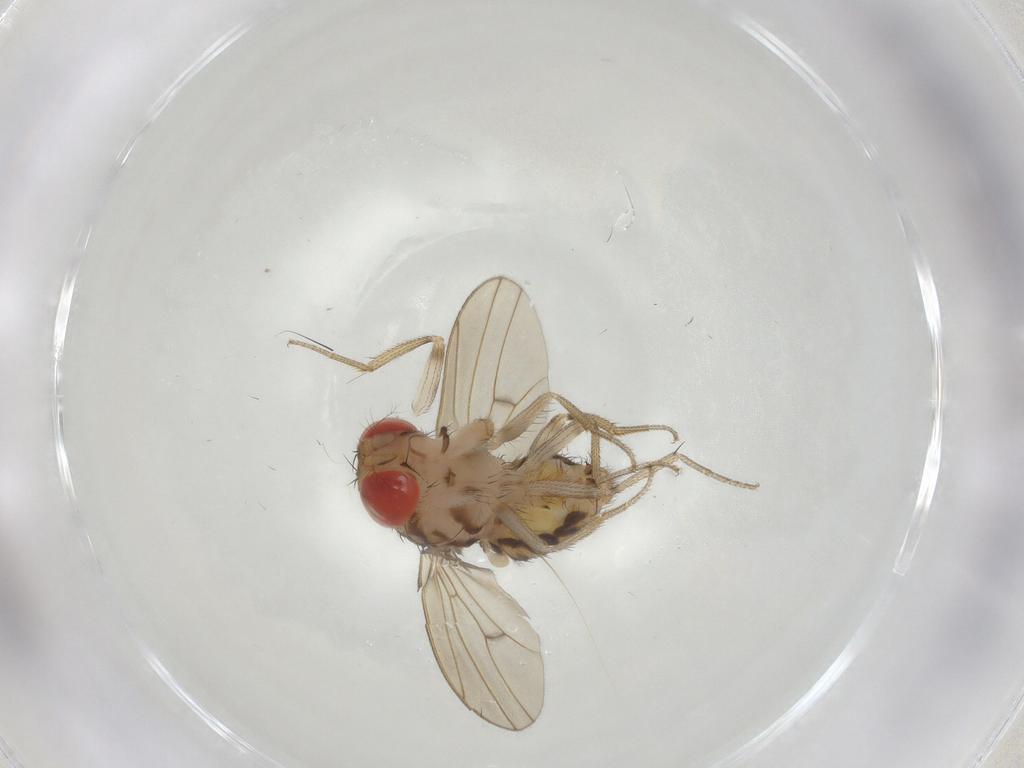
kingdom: Animalia
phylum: Arthropoda
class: Insecta
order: Diptera
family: Drosophilidae
